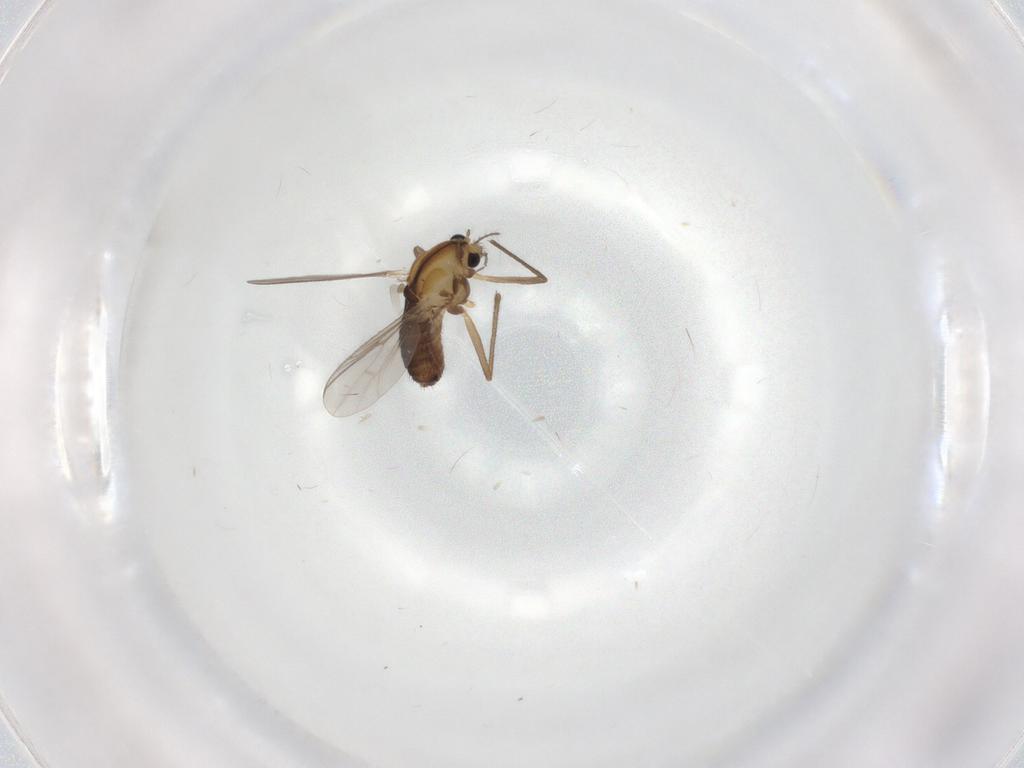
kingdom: Animalia
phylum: Arthropoda
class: Insecta
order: Diptera
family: Chironomidae
